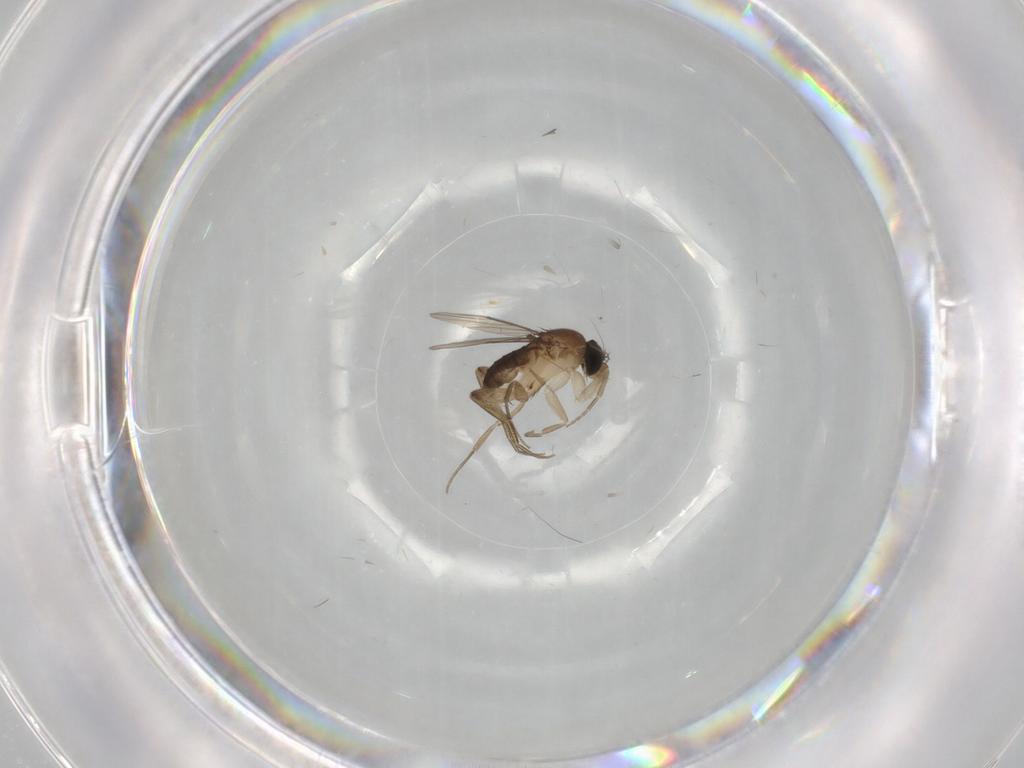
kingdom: Animalia
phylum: Arthropoda
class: Insecta
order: Diptera
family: Phoridae
